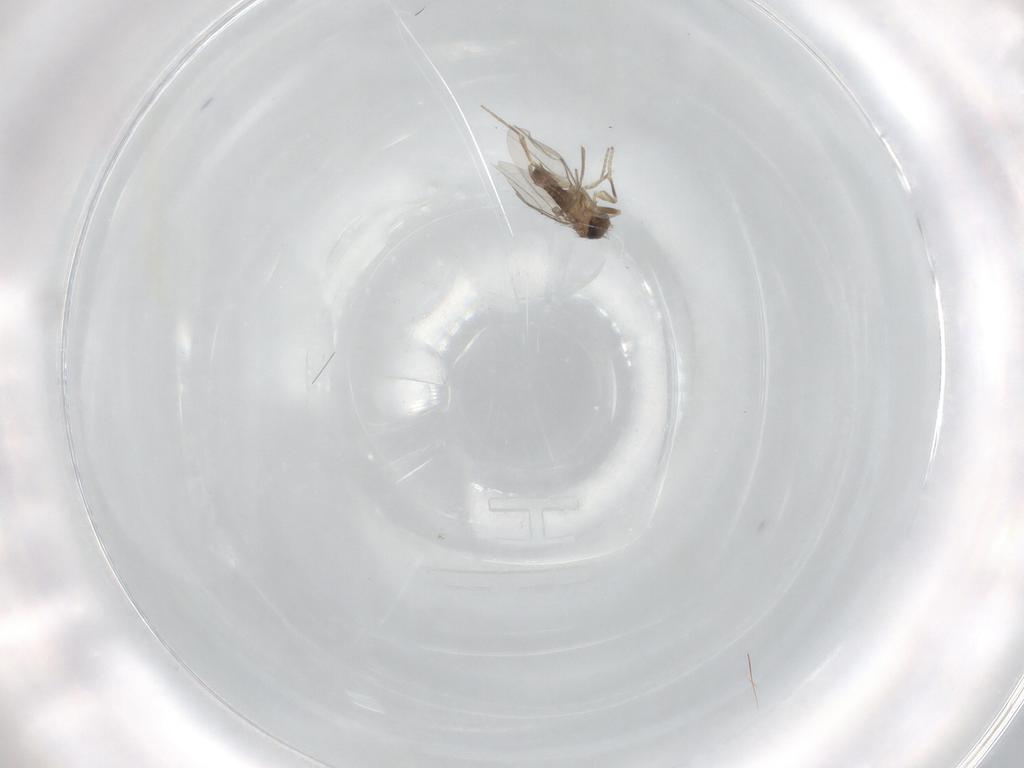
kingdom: Animalia
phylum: Arthropoda
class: Insecta
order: Diptera
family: Phoridae
